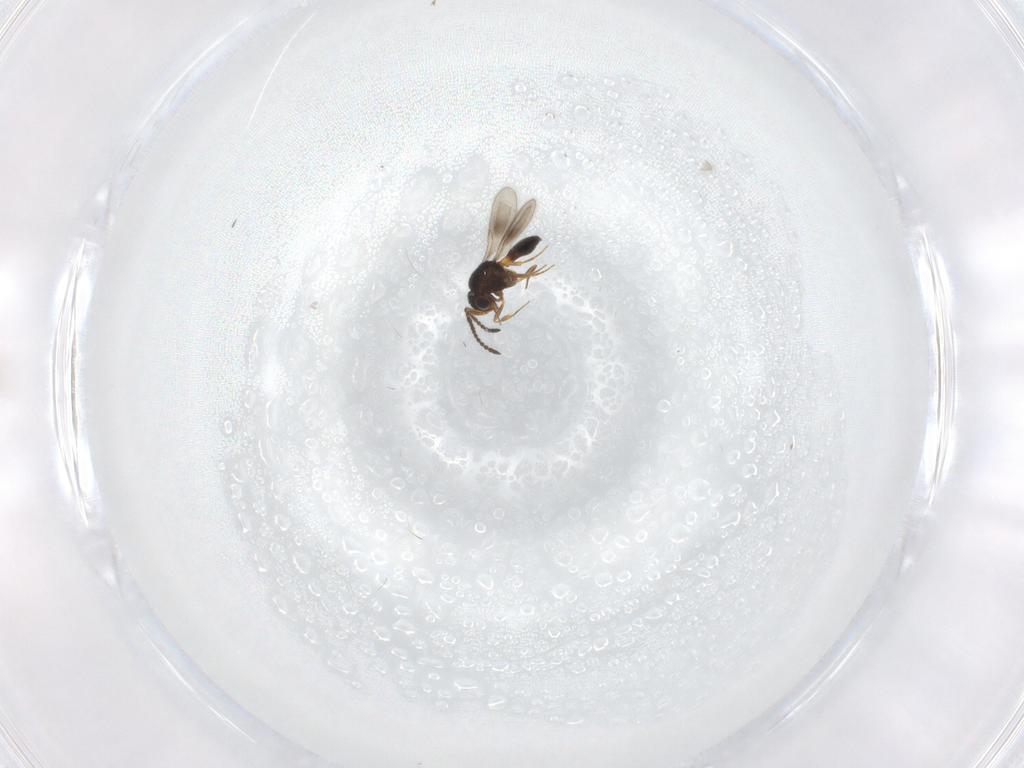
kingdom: Animalia
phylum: Arthropoda
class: Insecta
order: Hymenoptera
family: Scelionidae
